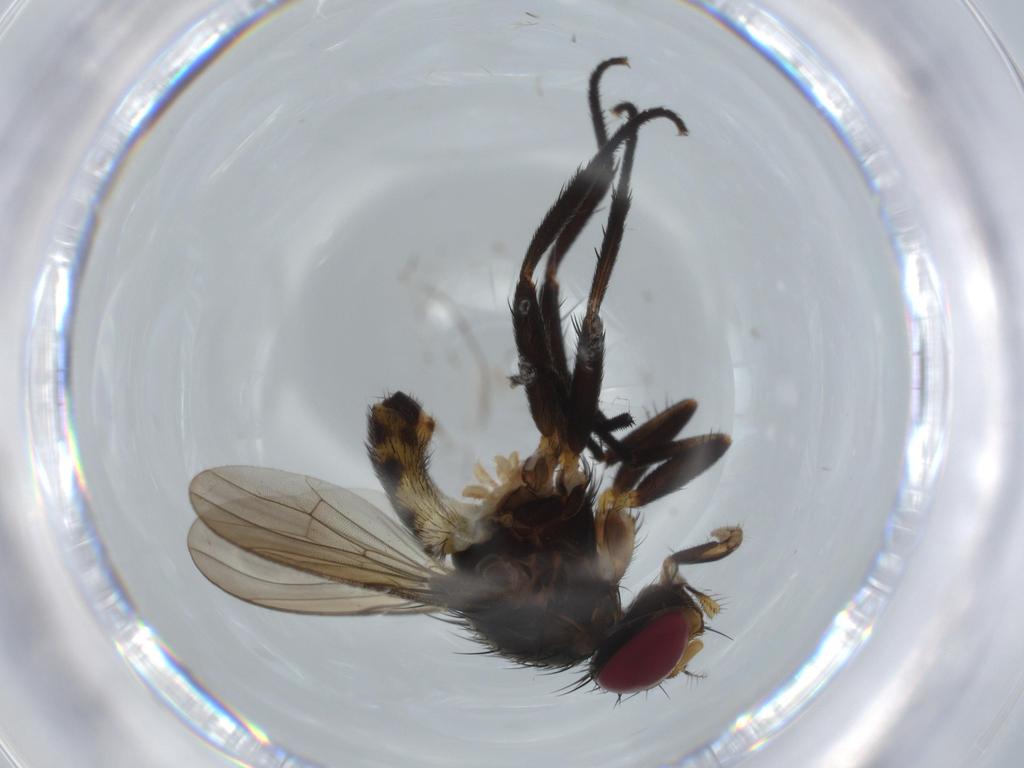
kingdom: Animalia
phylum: Arthropoda
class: Insecta
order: Diptera
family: Anthomyiidae
